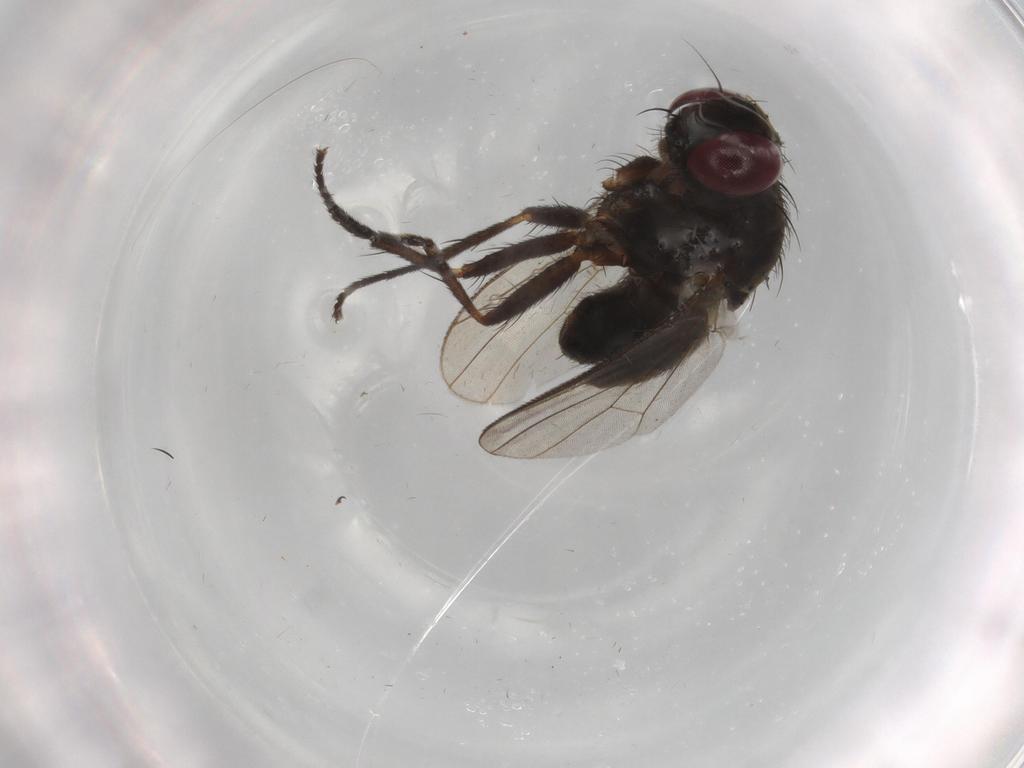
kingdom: Animalia
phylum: Arthropoda
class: Insecta
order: Diptera
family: Muscidae
